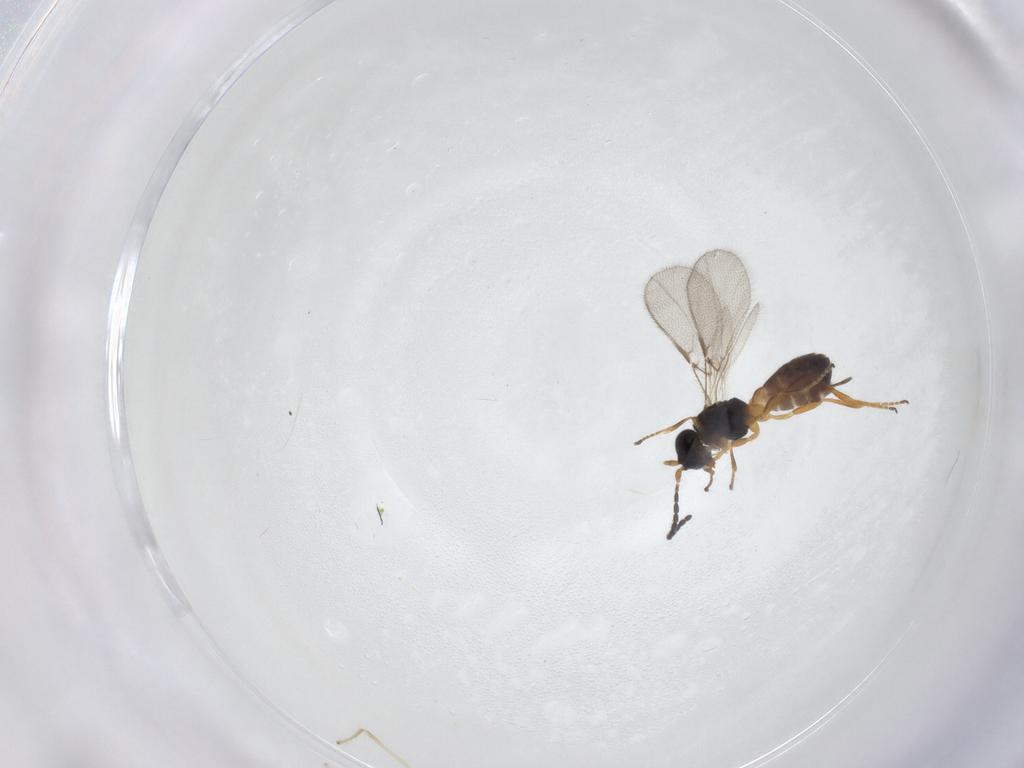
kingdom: Animalia
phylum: Arthropoda
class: Insecta
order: Hymenoptera
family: Braconidae
